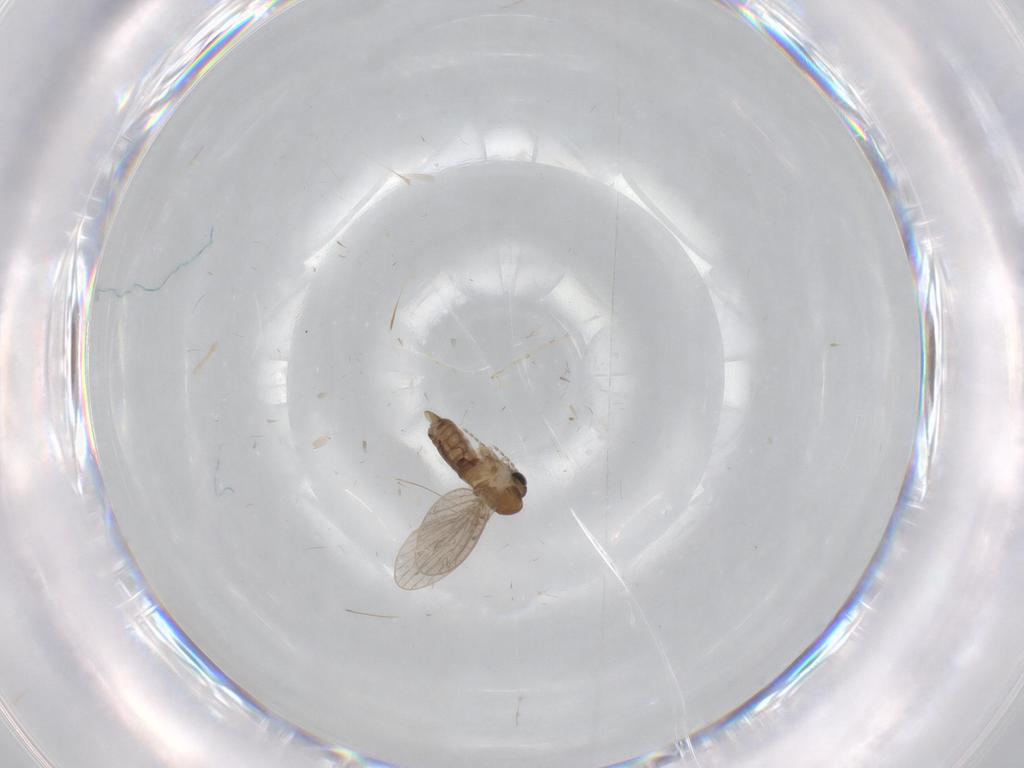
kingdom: Animalia
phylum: Arthropoda
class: Insecta
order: Diptera
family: Cecidomyiidae
